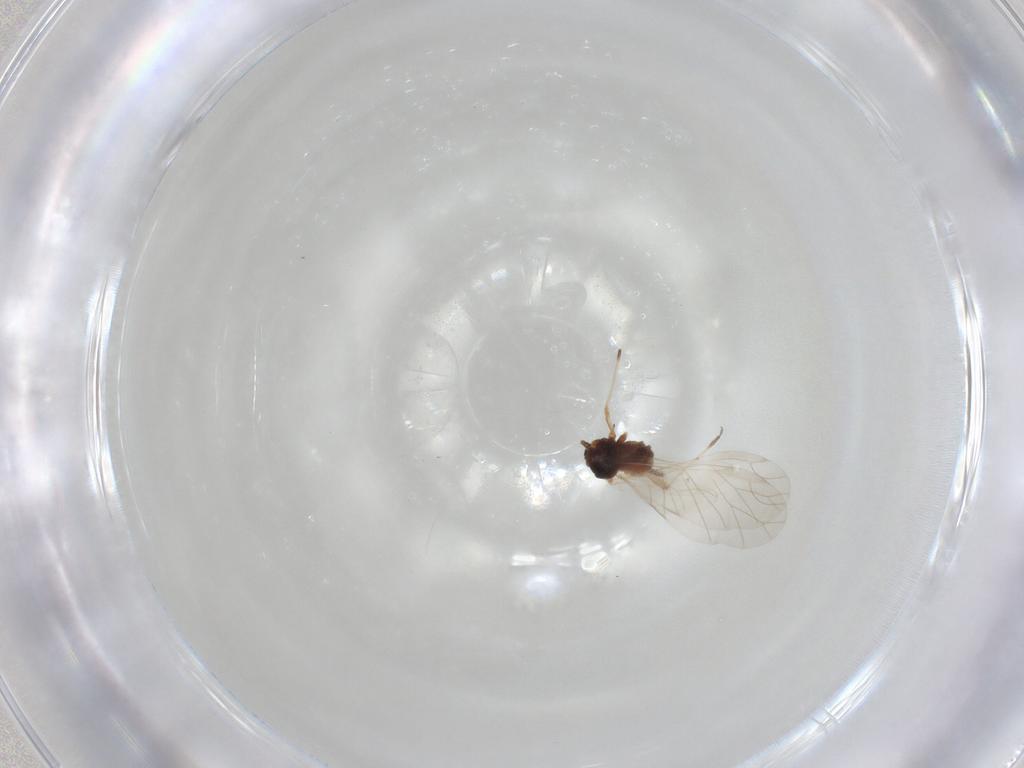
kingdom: Animalia
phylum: Arthropoda
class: Insecta
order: Hemiptera
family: Aphididae
